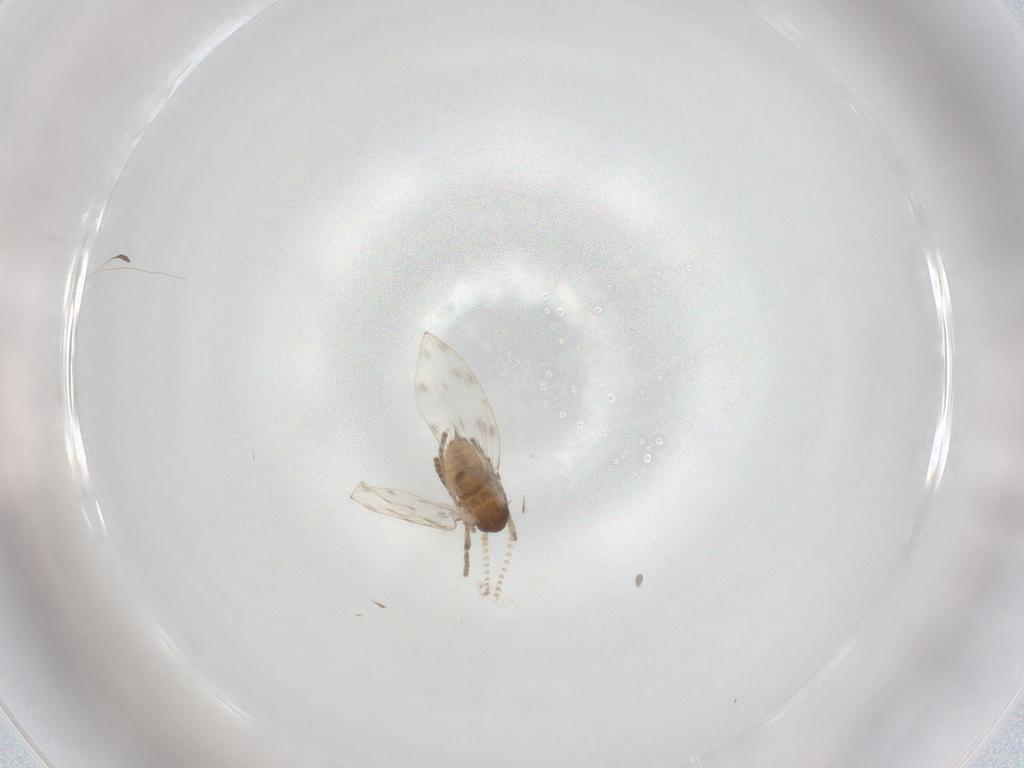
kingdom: Animalia
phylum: Arthropoda
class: Insecta
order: Diptera
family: Psychodidae
